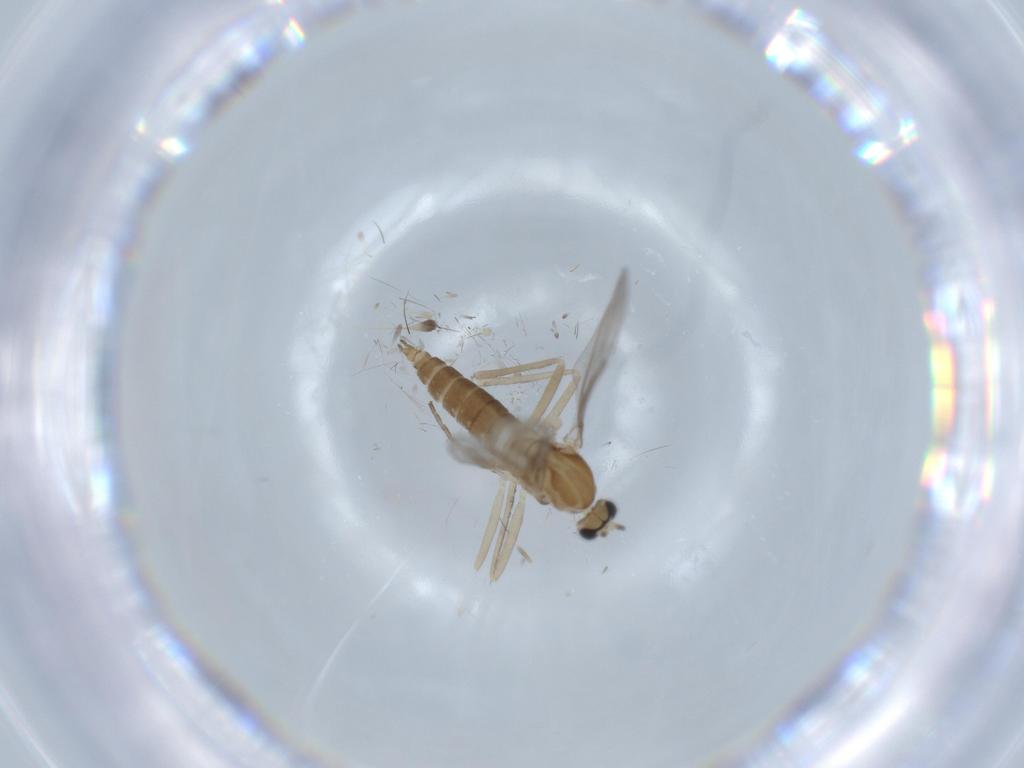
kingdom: Animalia
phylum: Arthropoda
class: Insecta
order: Diptera
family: Cecidomyiidae
